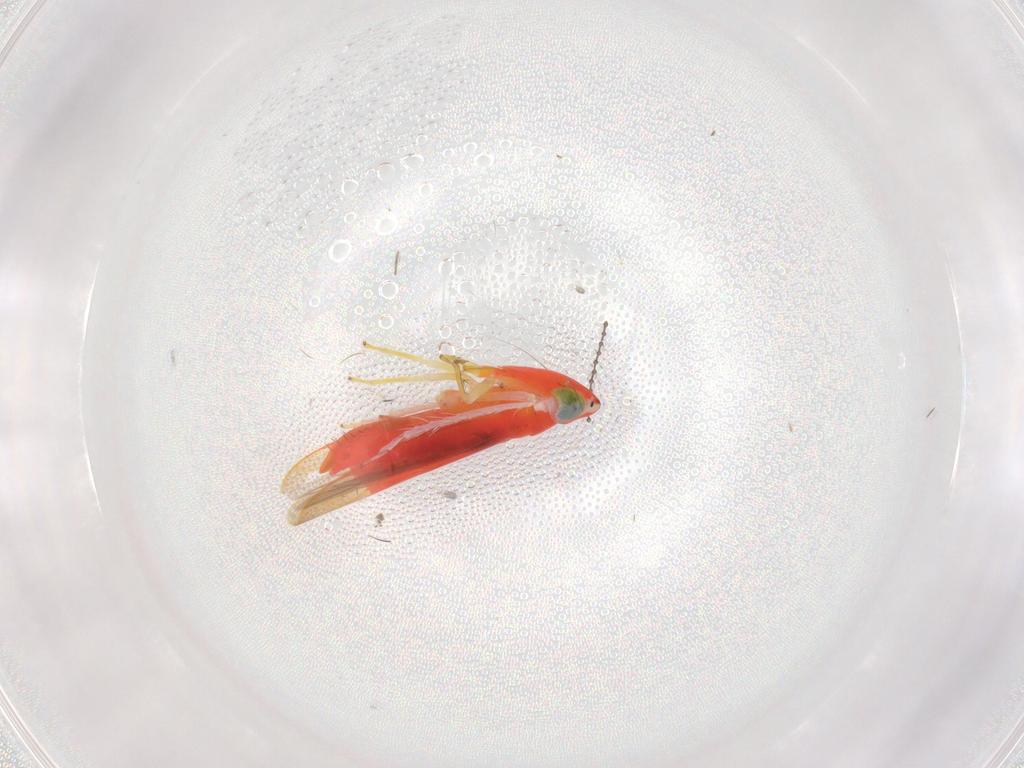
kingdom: Animalia
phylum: Arthropoda
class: Insecta
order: Hemiptera
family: Cicadellidae
